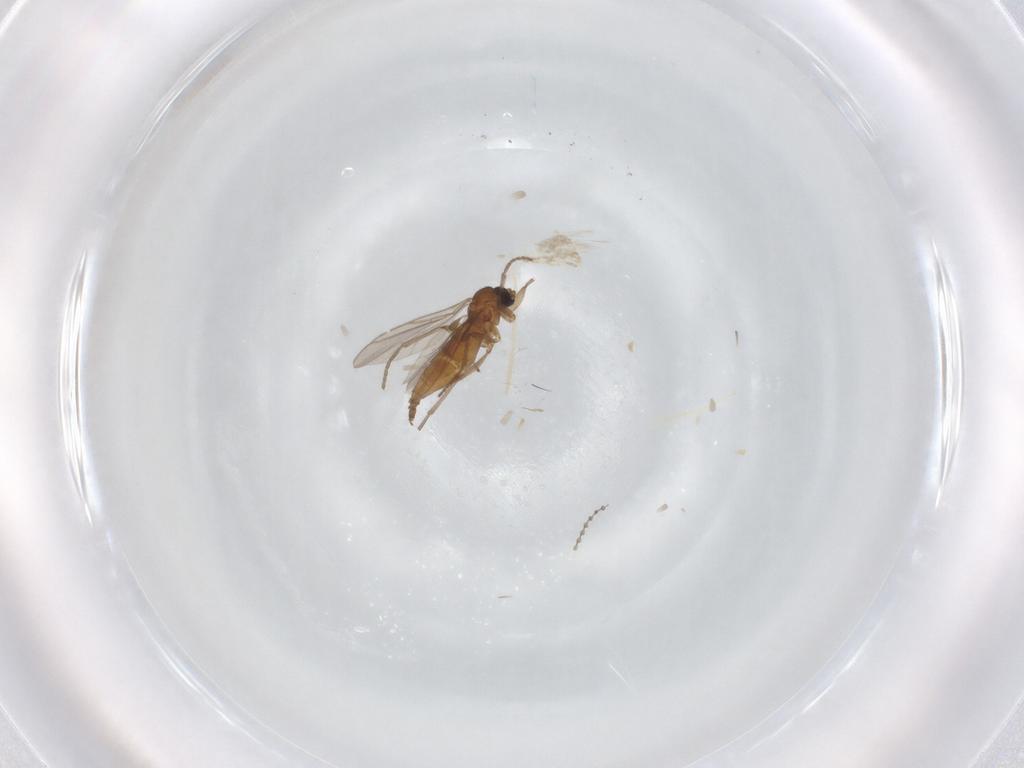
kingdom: Animalia
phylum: Arthropoda
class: Insecta
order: Diptera
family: Cecidomyiidae
